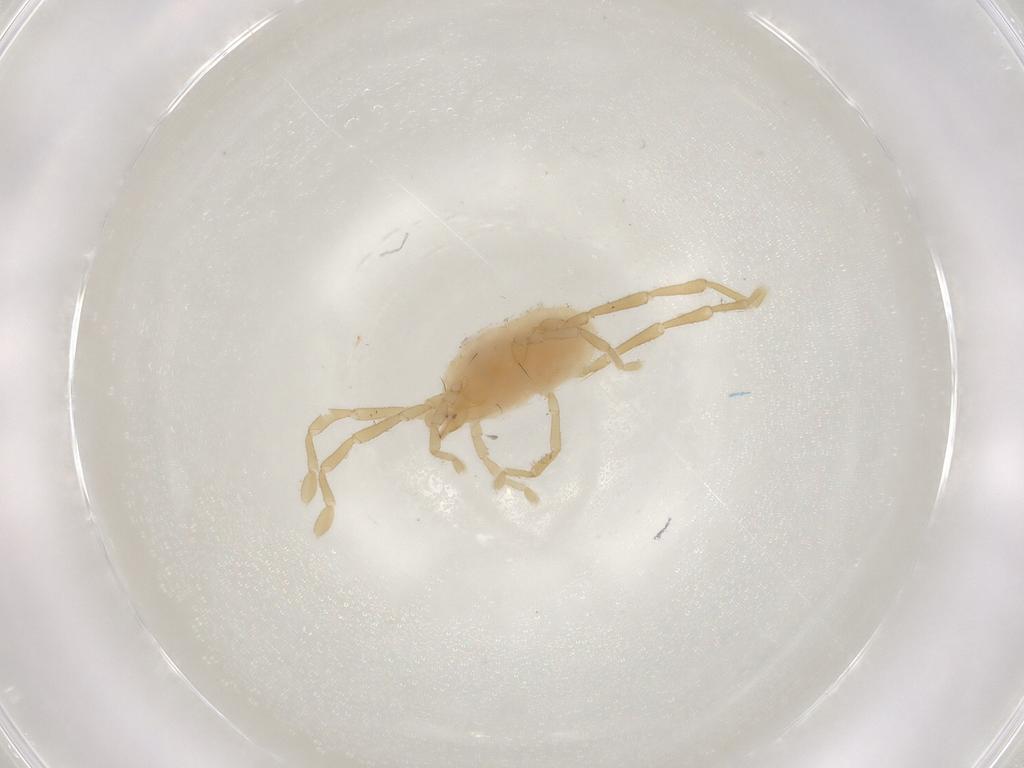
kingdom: Animalia
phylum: Arthropoda
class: Arachnida
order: Trombidiformes
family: Erythraeidae
